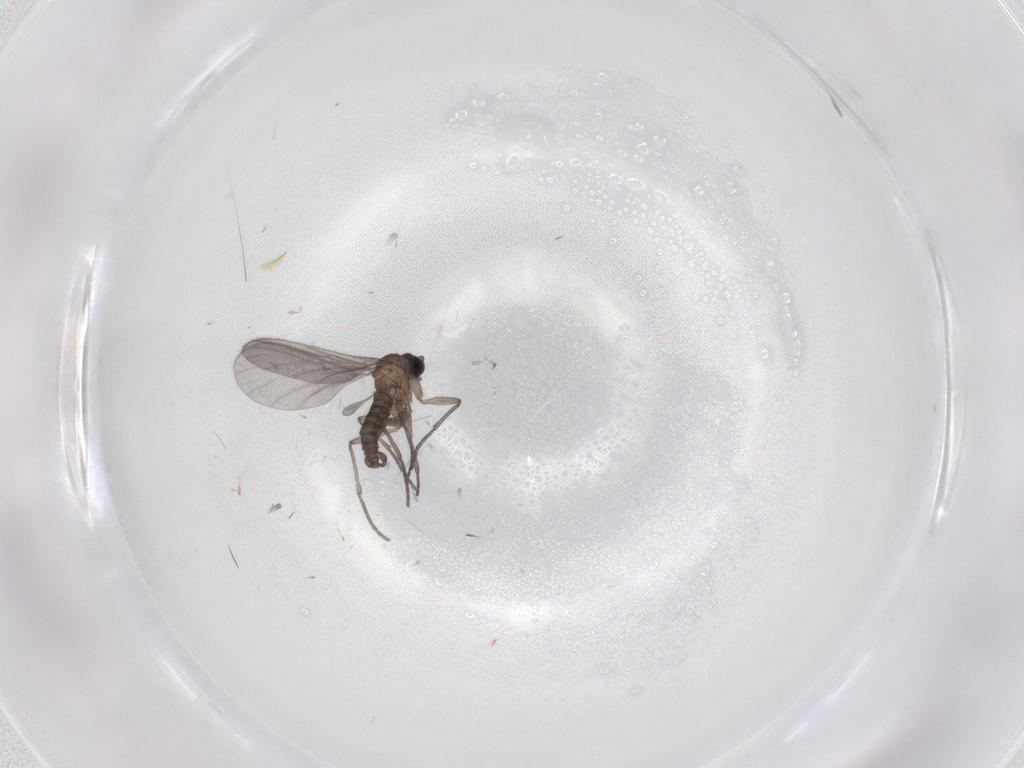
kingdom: Animalia
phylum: Arthropoda
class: Insecta
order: Diptera
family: Sciaridae
